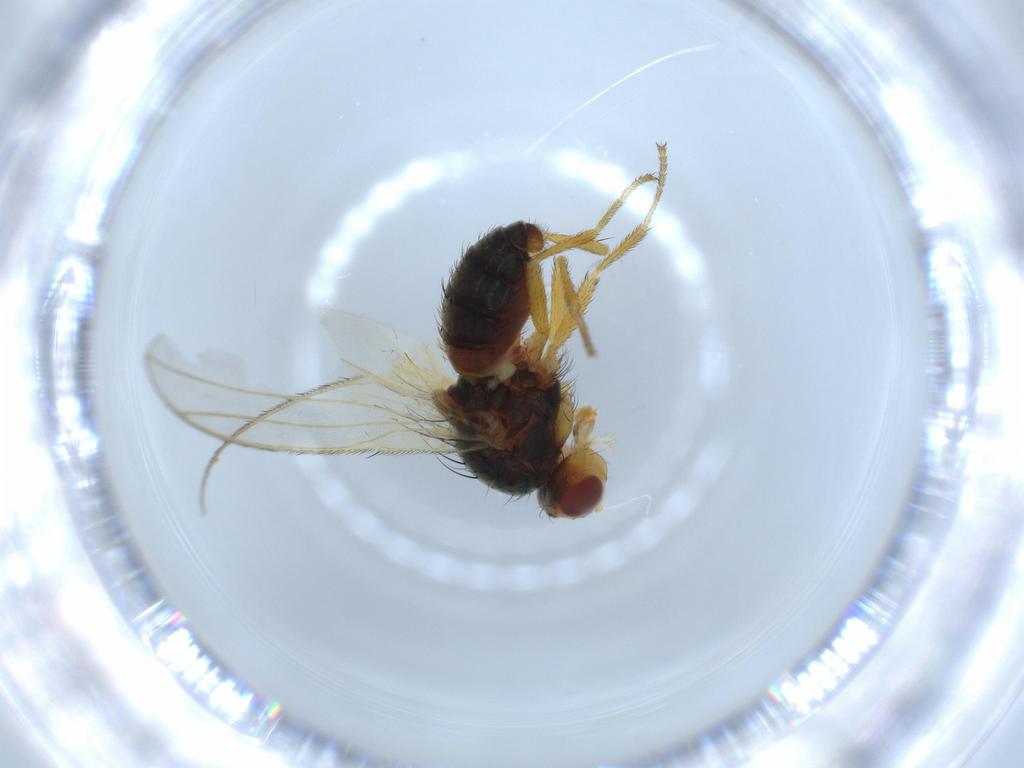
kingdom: Animalia
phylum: Arthropoda
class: Insecta
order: Diptera
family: Heleomyzidae
